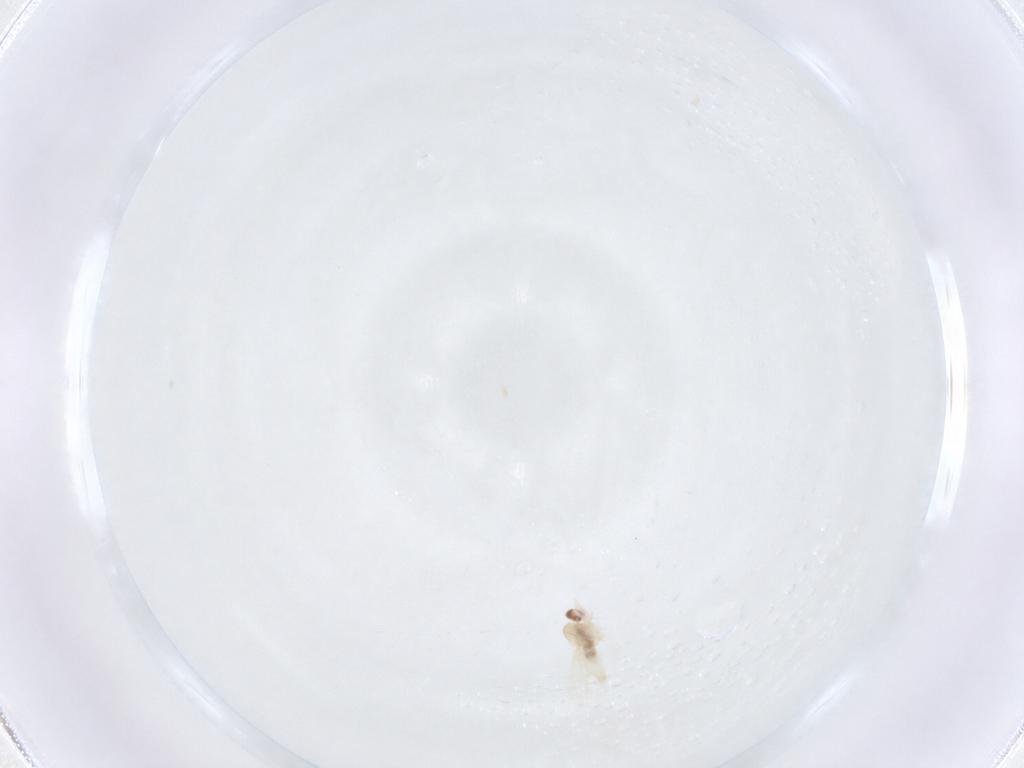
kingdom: Animalia
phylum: Arthropoda
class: Insecta
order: Diptera
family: Cecidomyiidae
